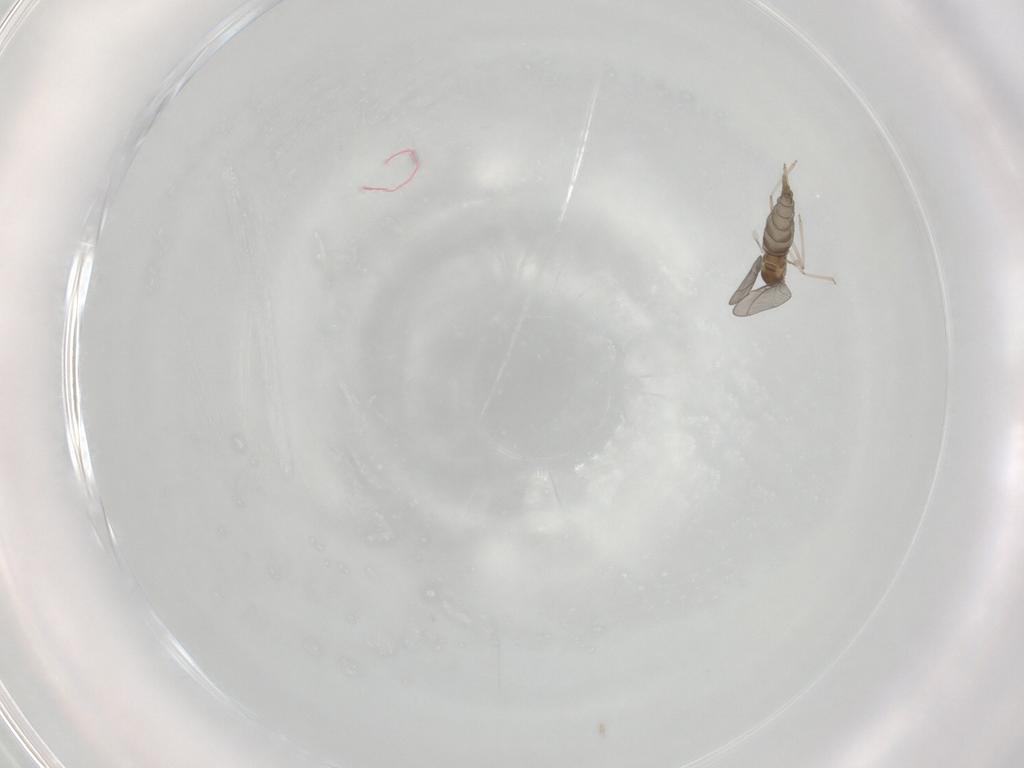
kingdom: Animalia
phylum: Arthropoda
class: Insecta
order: Diptera
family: Cecidomyiidae
